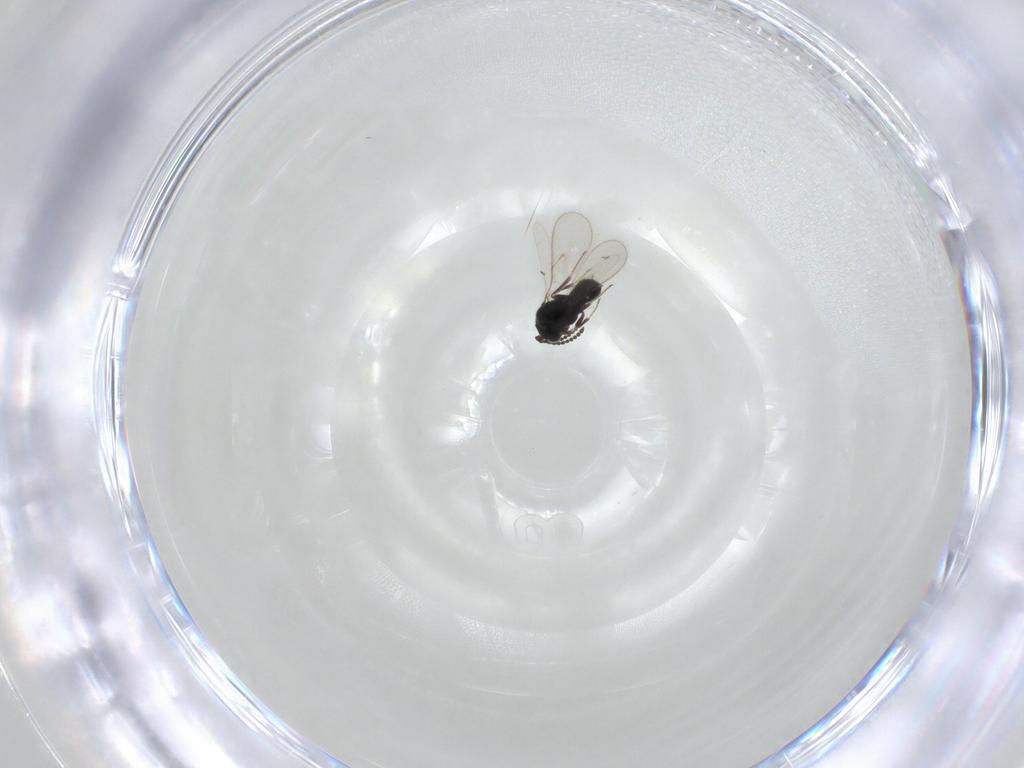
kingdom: Animalia
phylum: Arthropoda
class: Insecta
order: Hymenoptera
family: Scelionidae
